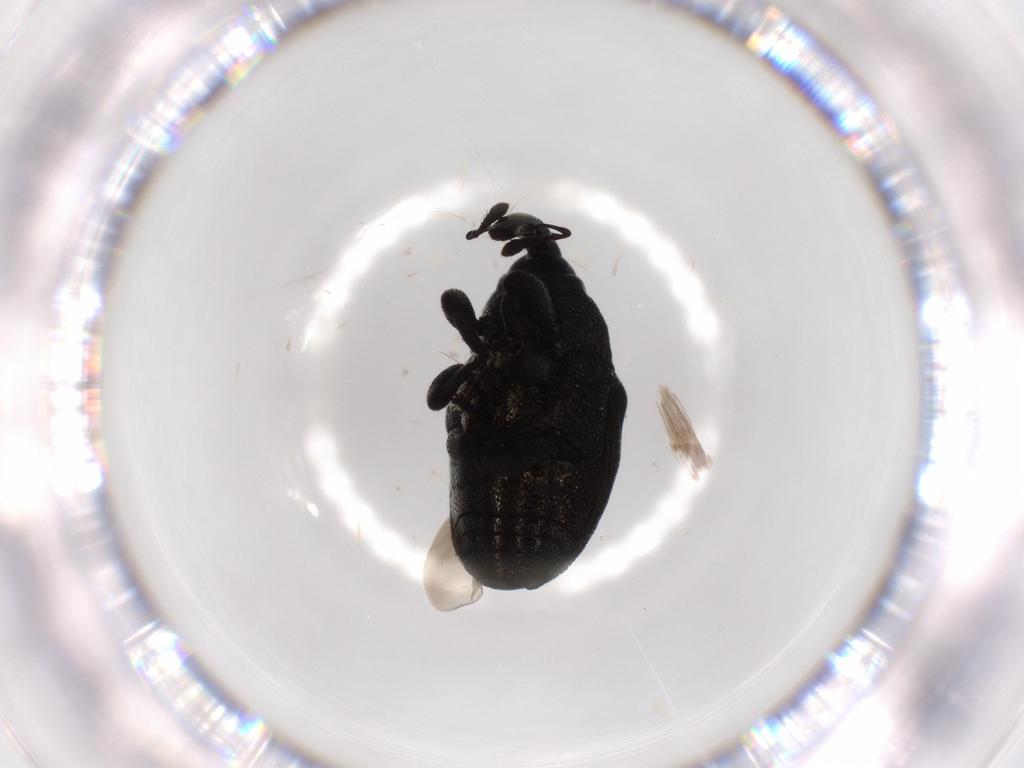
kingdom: Animalia
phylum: Arthropoda
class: Insecta
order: Coleoptera
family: Curculionidae
